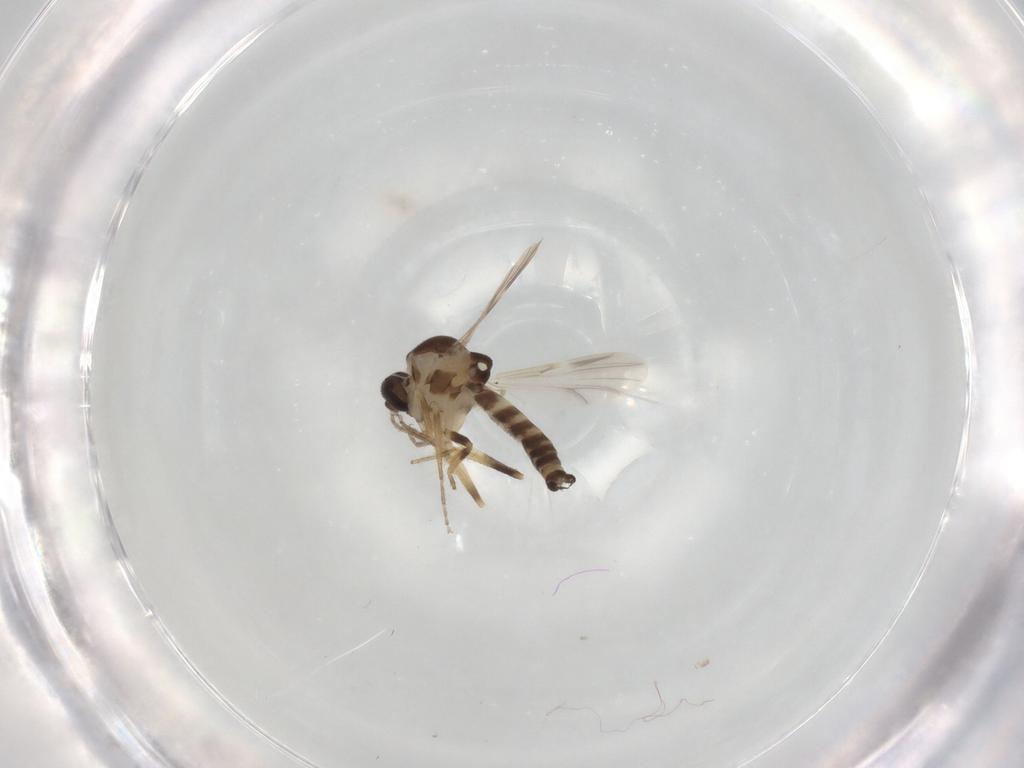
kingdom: Animalia
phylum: Arthropoda
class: Insecta
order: Diptera
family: Ceratopogonidae
